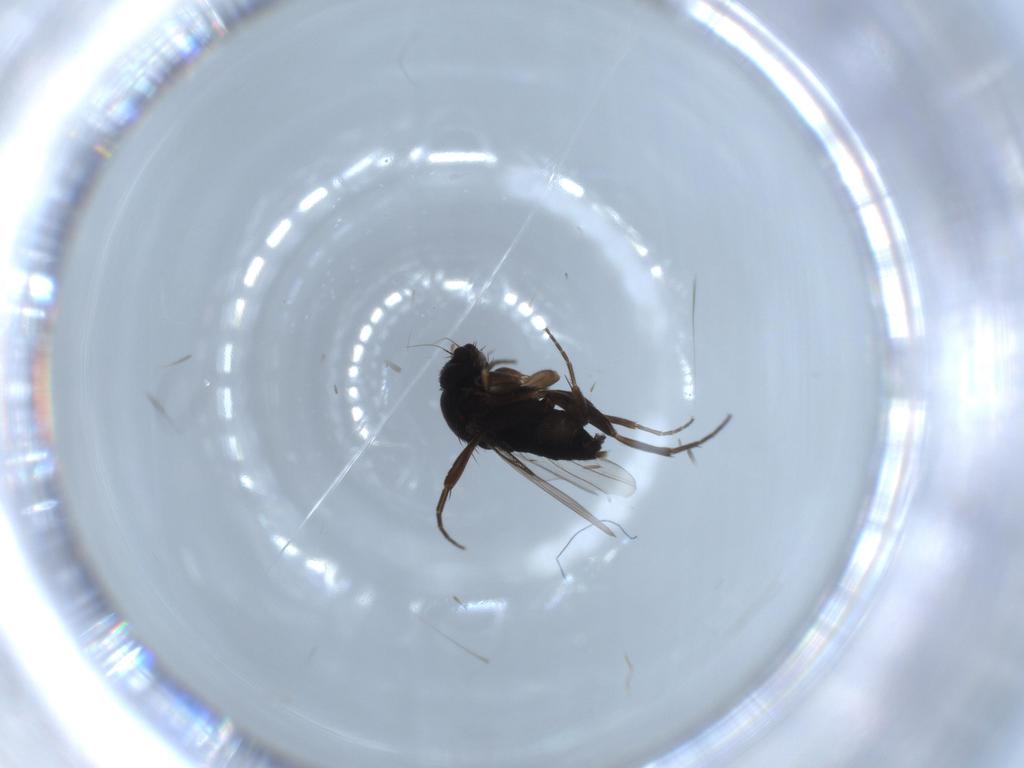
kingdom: Animalia
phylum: Arthropoda
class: Insecta
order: Diptera
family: Phoridae
